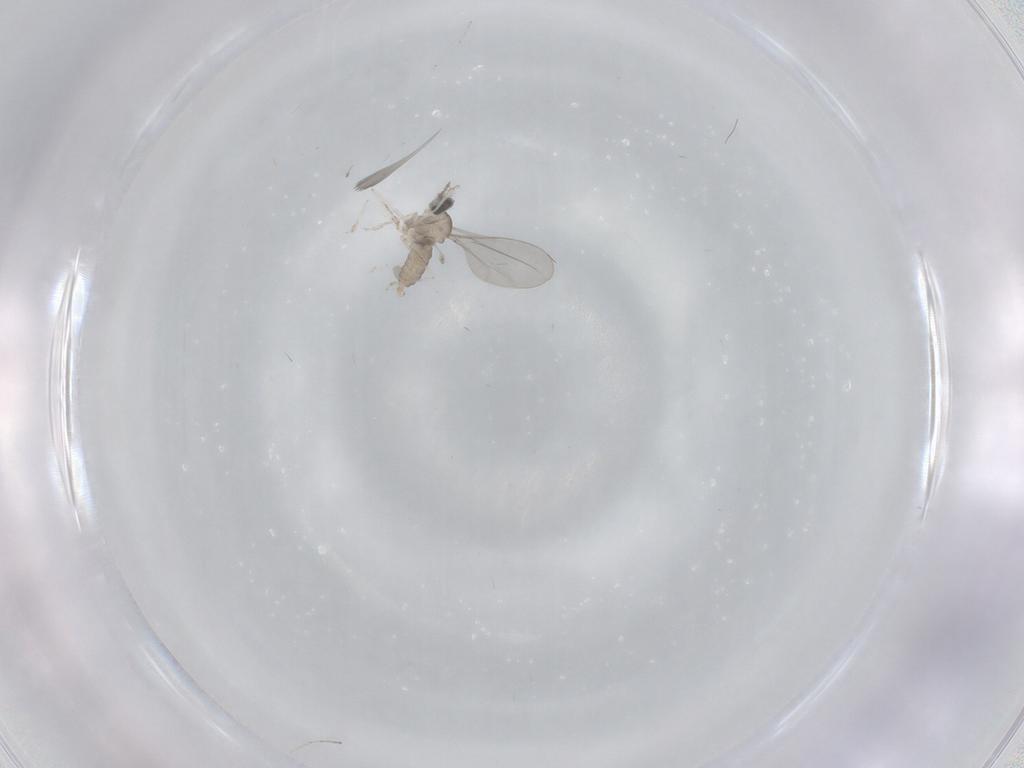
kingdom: Animalia
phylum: Arthropoda
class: Insecta
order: Diptera
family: Cecidomyiidae
